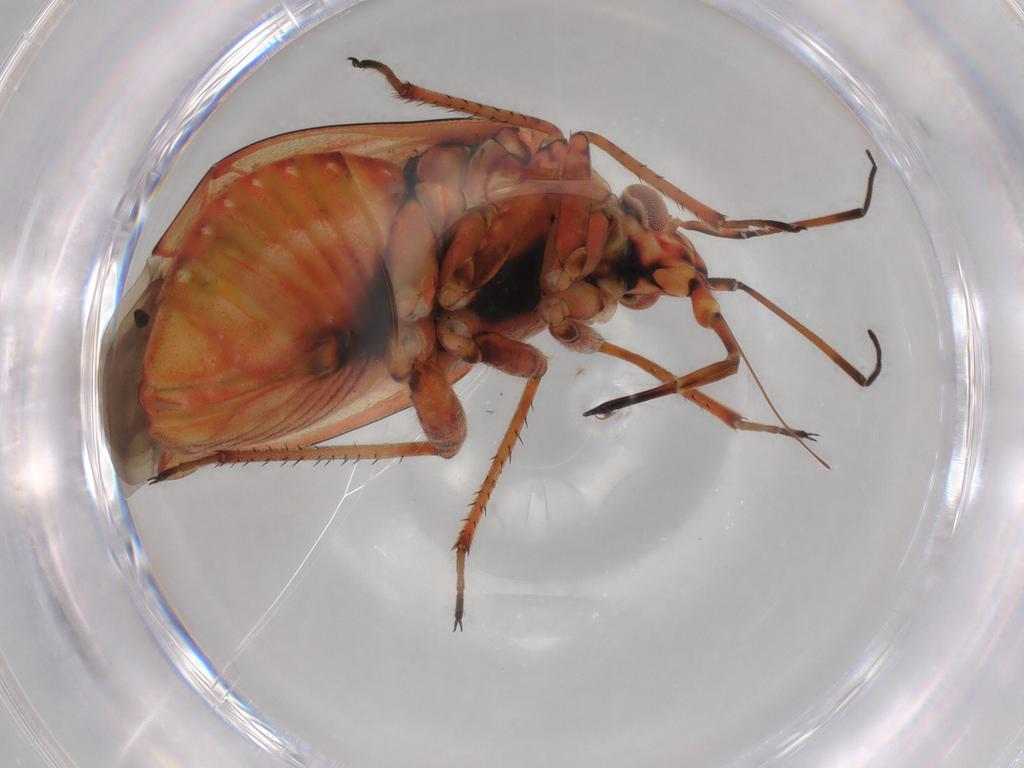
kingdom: Animalia
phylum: Arthropoda
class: Insecta
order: Hemiptera
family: Miridae
